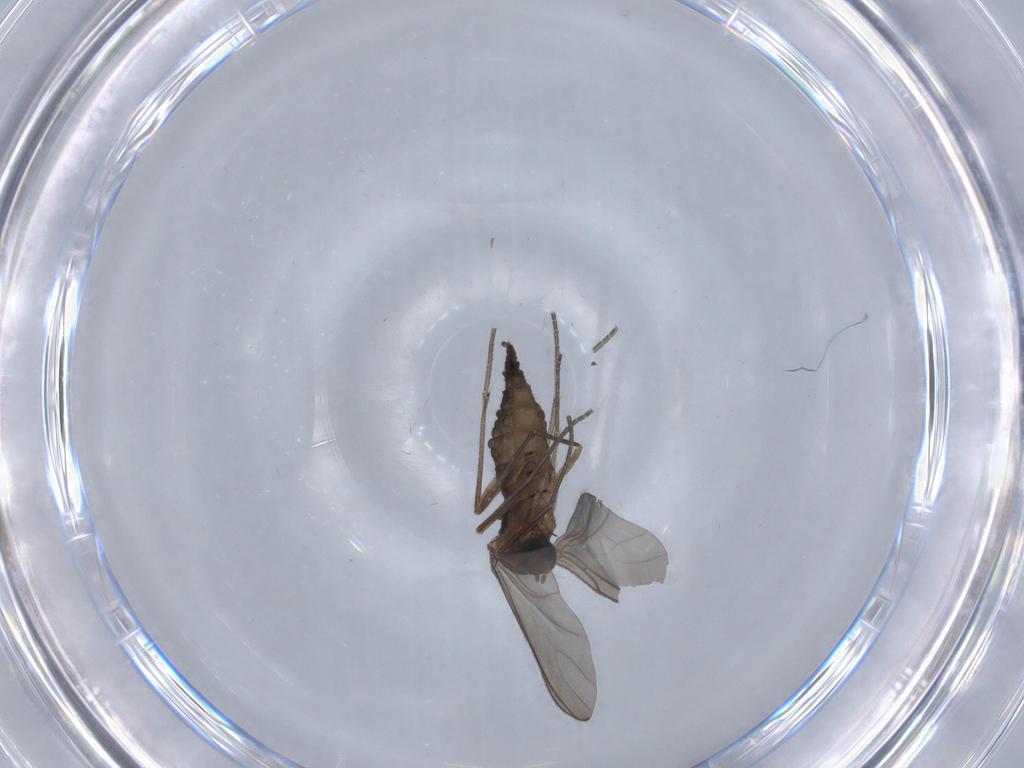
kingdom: Animalia
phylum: Arthropoda
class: Insecta
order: Diptera
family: Sciaridae
